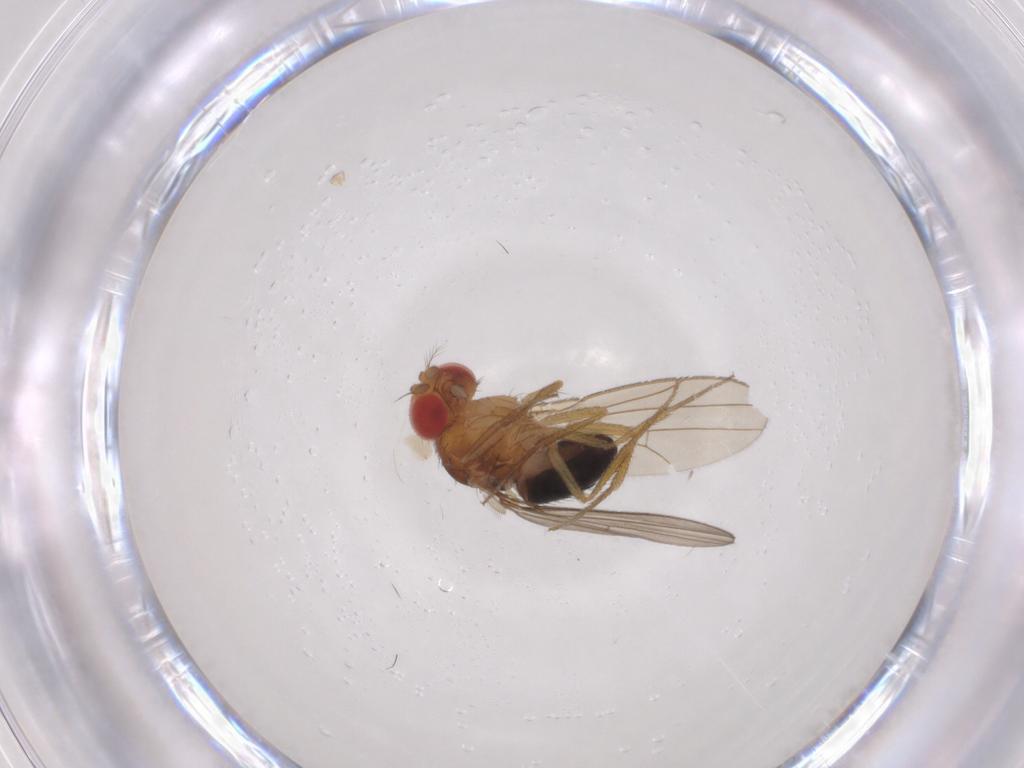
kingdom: Animalia
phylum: Arthropoda
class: Insecta
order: Diptera
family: Drosophilidae
